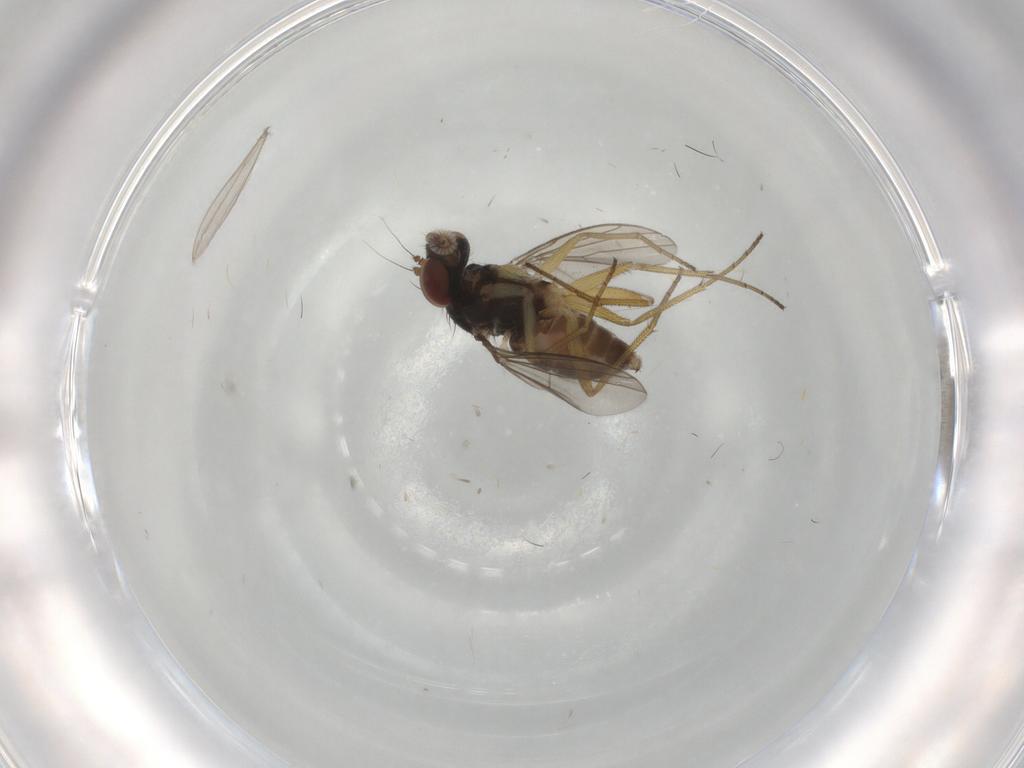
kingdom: Animalia
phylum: Arthropoda
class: Insecta
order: Diptera
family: Dolichopodidae
